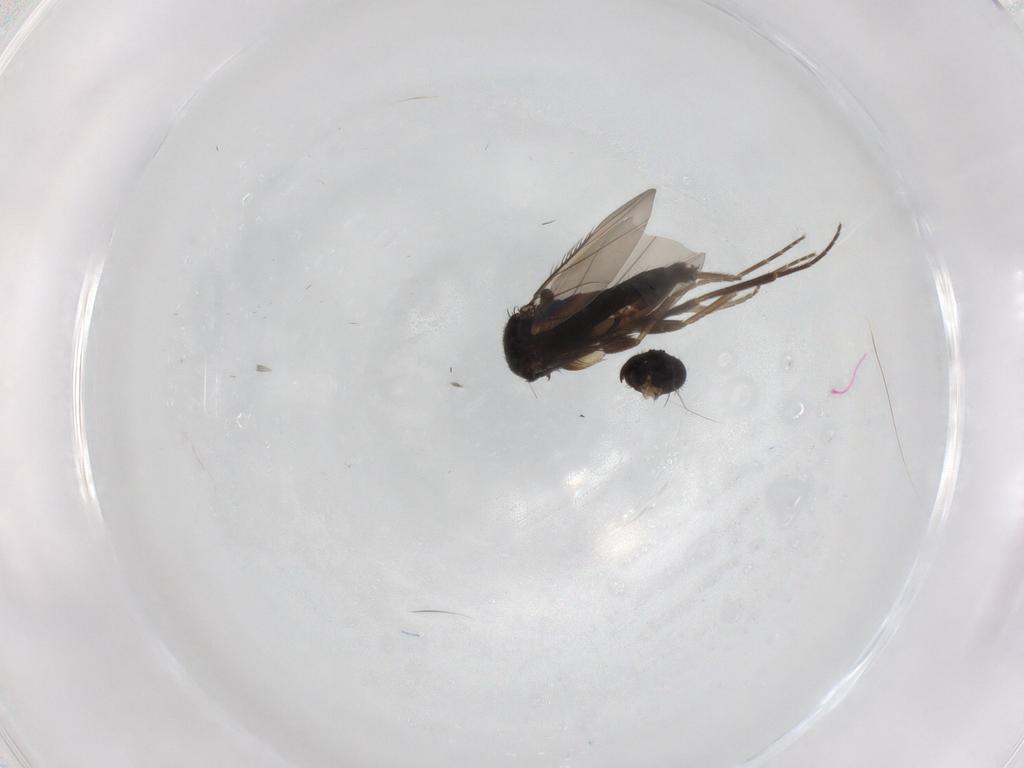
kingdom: Animalia
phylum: Arthropoda
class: Insecta
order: Diptera
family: Phoridae
